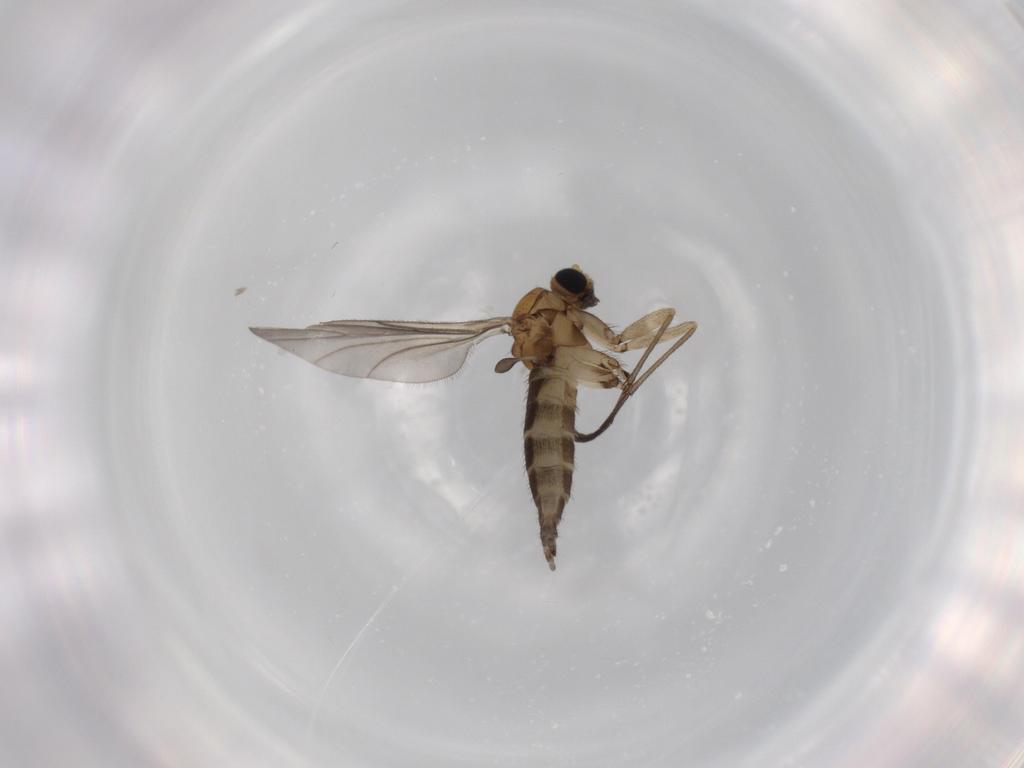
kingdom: Animalia
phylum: Arthropoda
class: Insecta
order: Diptera
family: Sciaridae
